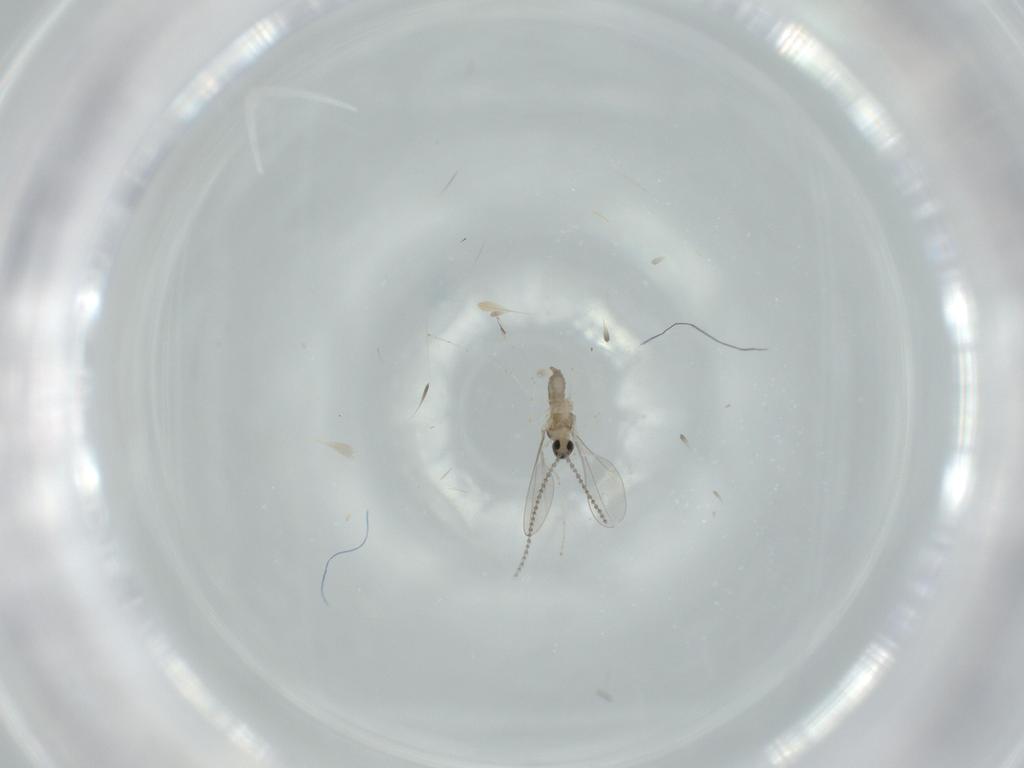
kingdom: Animalia
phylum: Arthropoda
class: Insecta
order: Diptera
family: Cecidomyiidae
